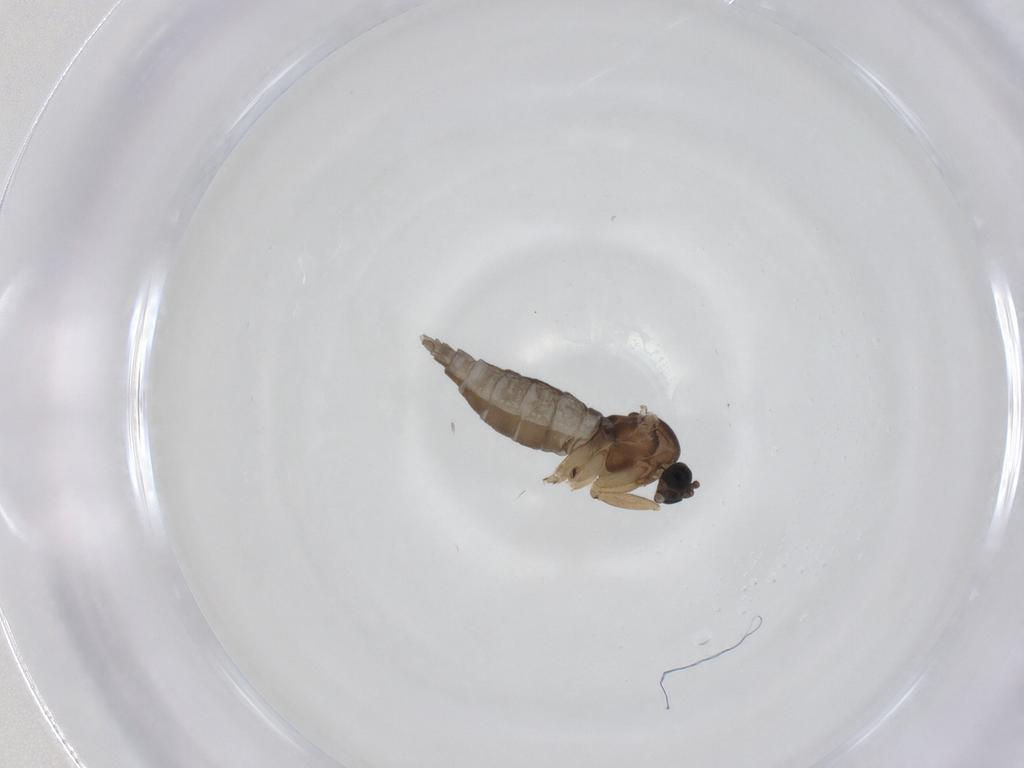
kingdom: Animalia
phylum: Arthropoda
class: Insecta
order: Diptera
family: Sciaridae
